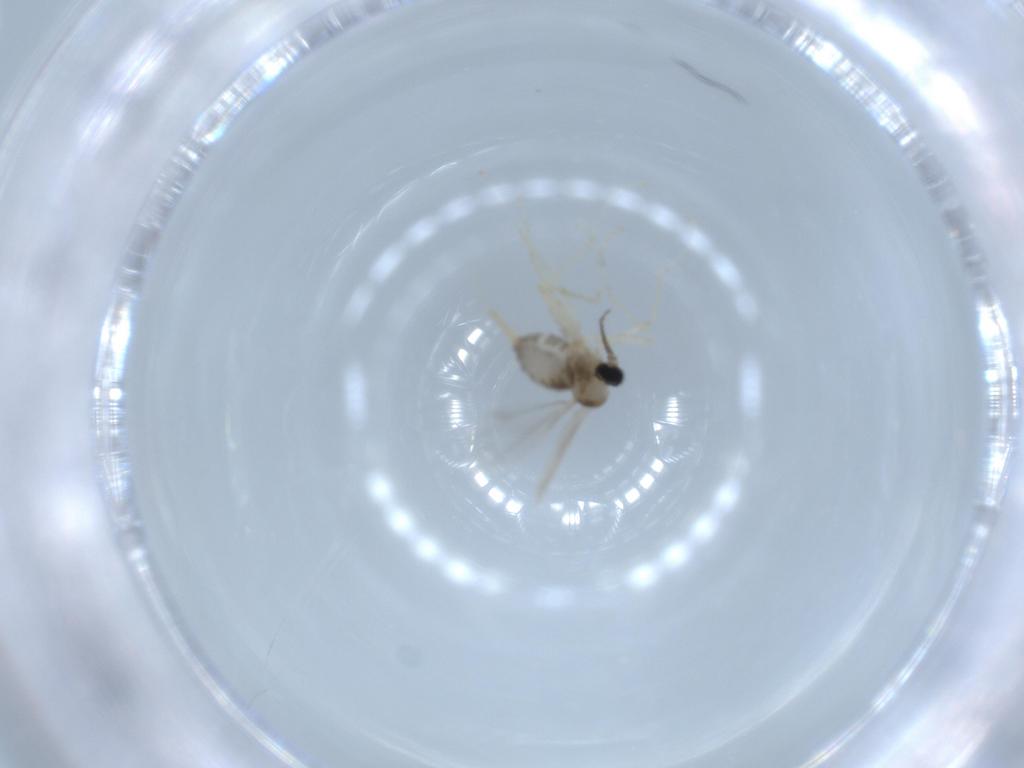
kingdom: Animalia
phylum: Arthropoda
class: Insecta
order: Diptera
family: Cecidomyiidae
